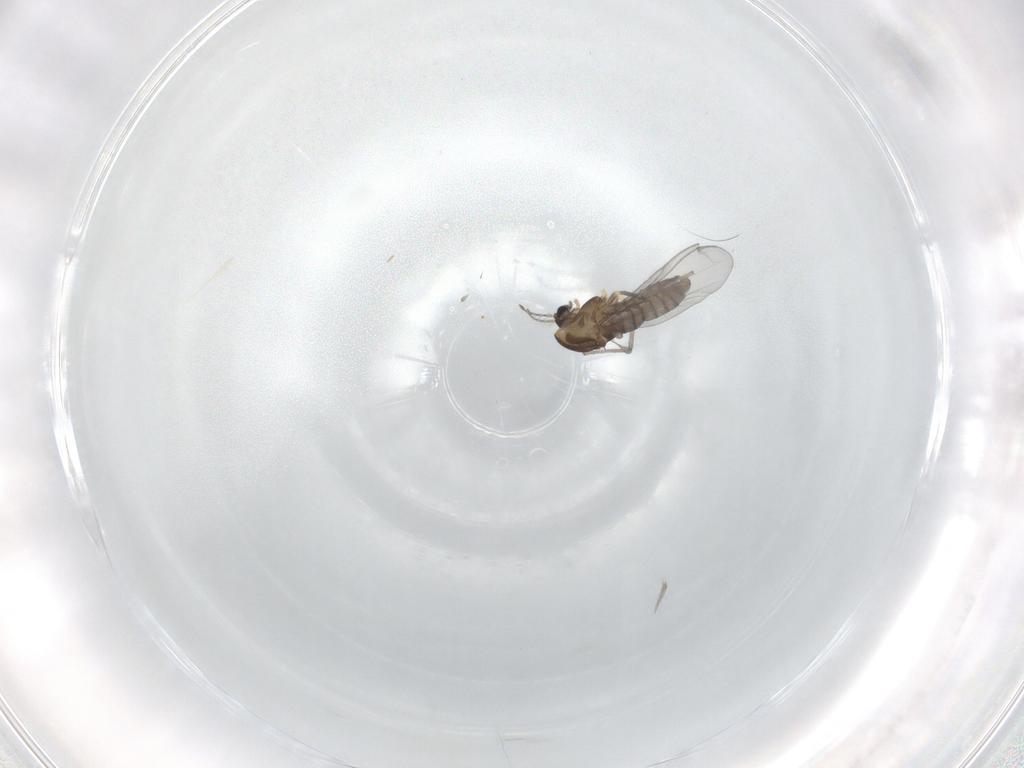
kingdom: Animalia
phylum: Arthropoda
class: Insecta
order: Diptera
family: Chironomidae
